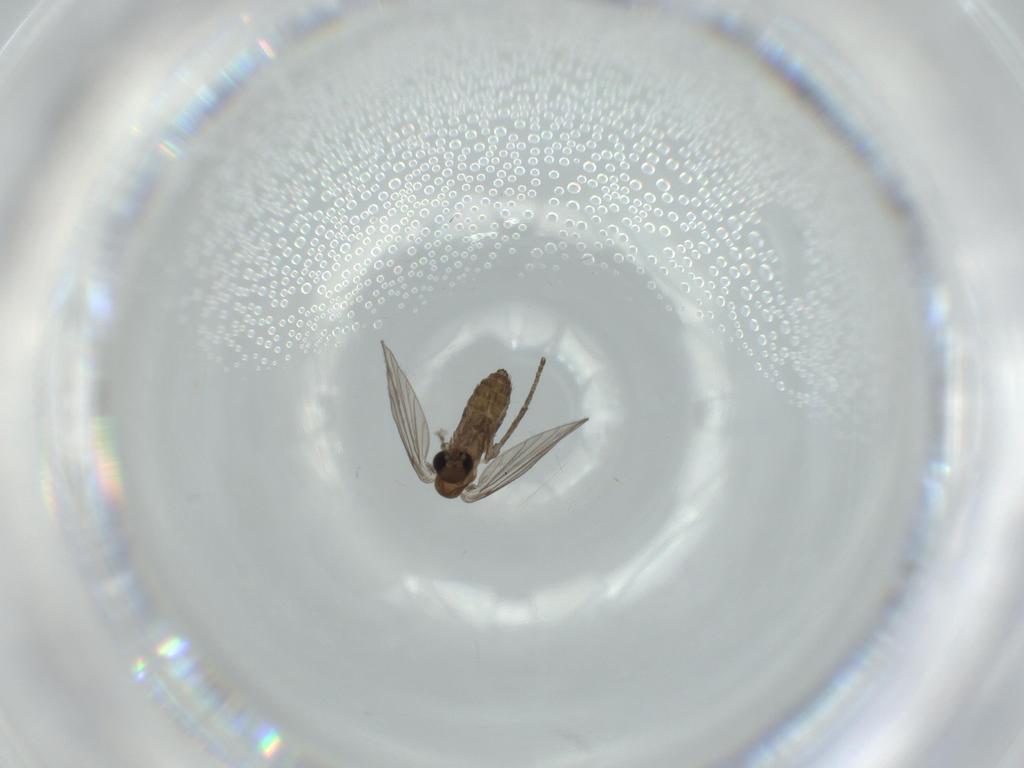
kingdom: Animalia
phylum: Arthropoda
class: Insecta
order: Diptera
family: Psychodidae
